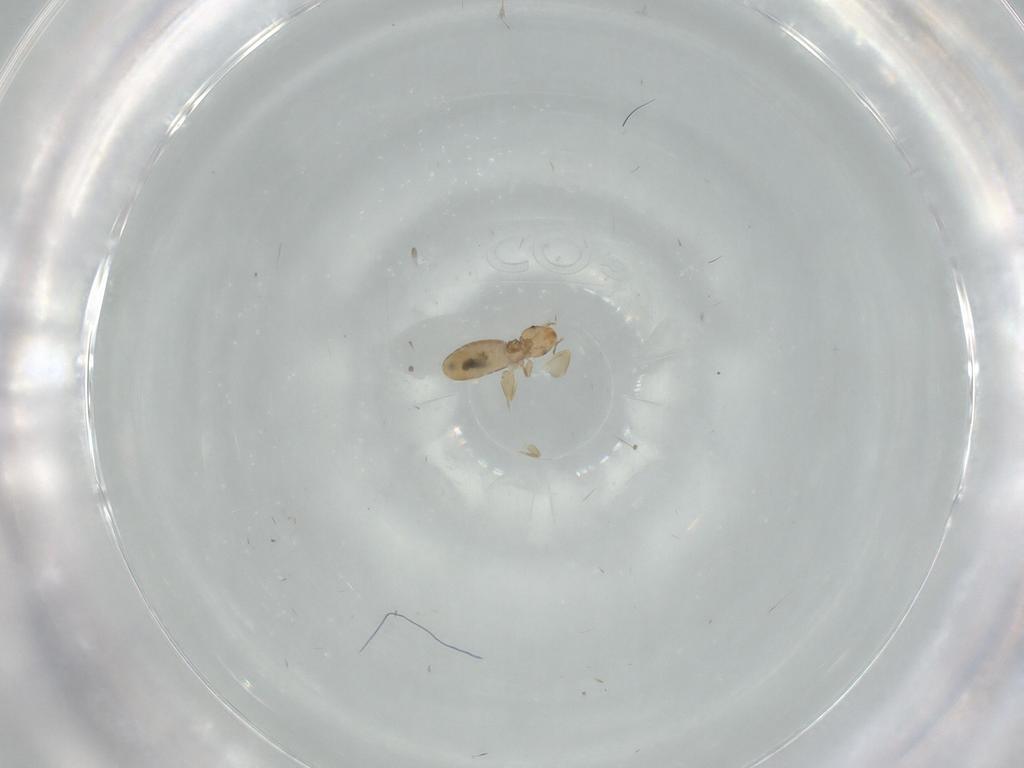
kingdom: Animalia
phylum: Arthropoda
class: Insecta
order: Psocodea
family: Liposcelididae
